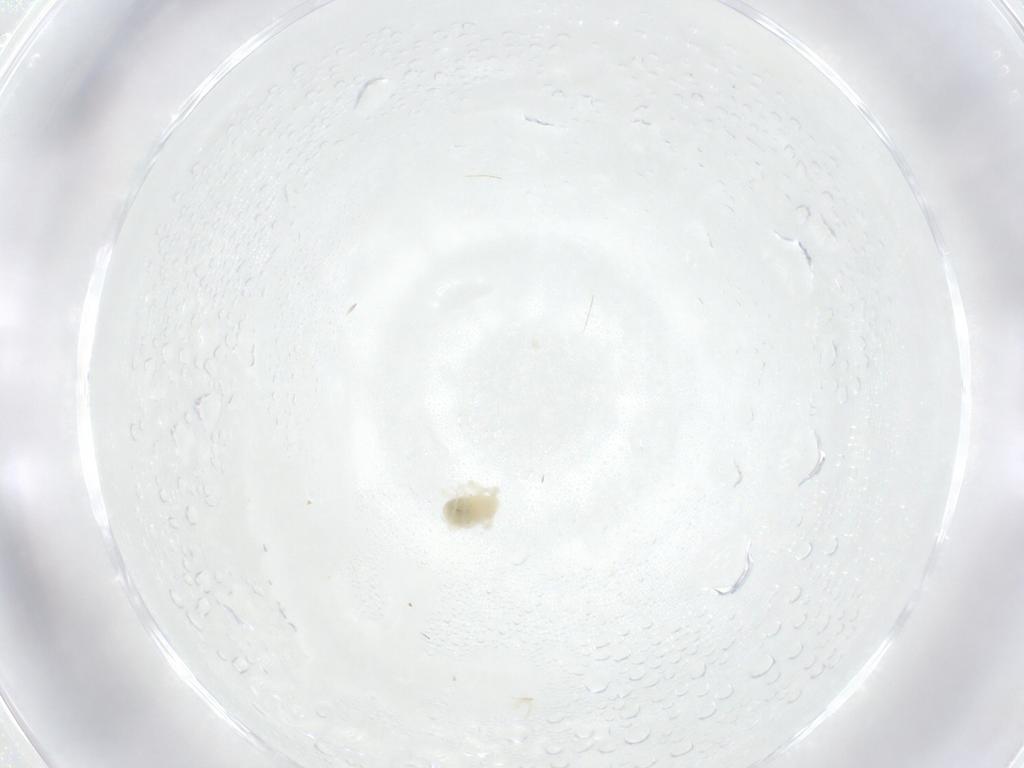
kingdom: Animalia
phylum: Arthropoda
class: Arachnida
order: Trombidiformes
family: Anystidae
